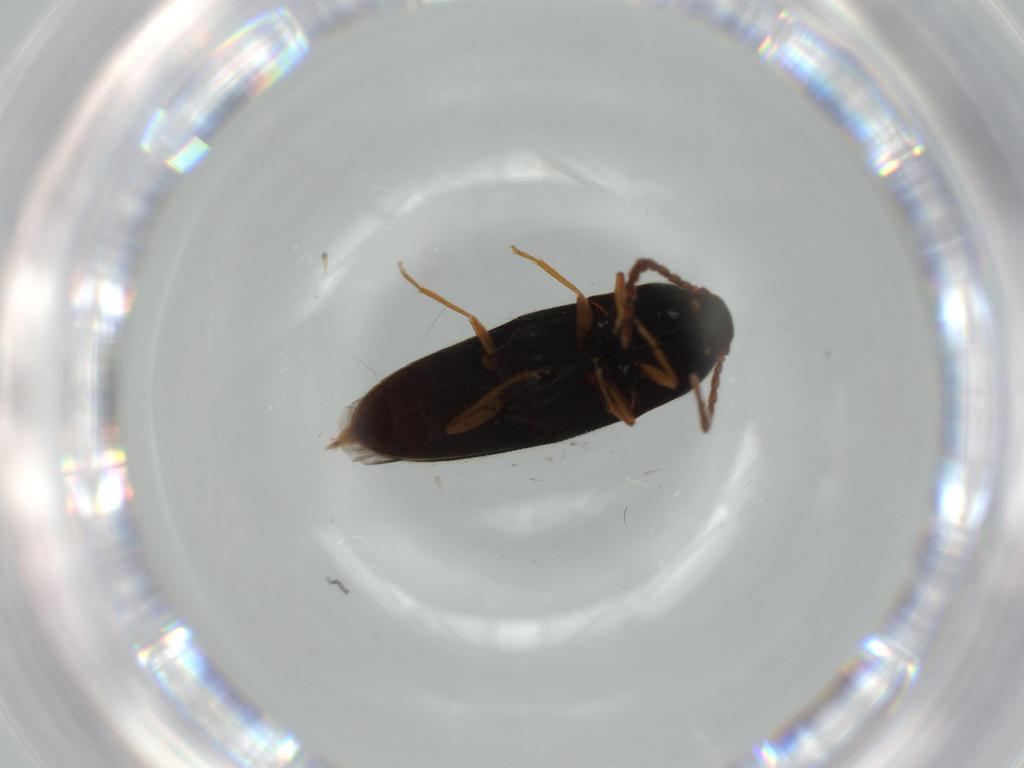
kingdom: Animalia
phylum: Arthropoda
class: Insecta
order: Coleoptera
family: Elateridae
